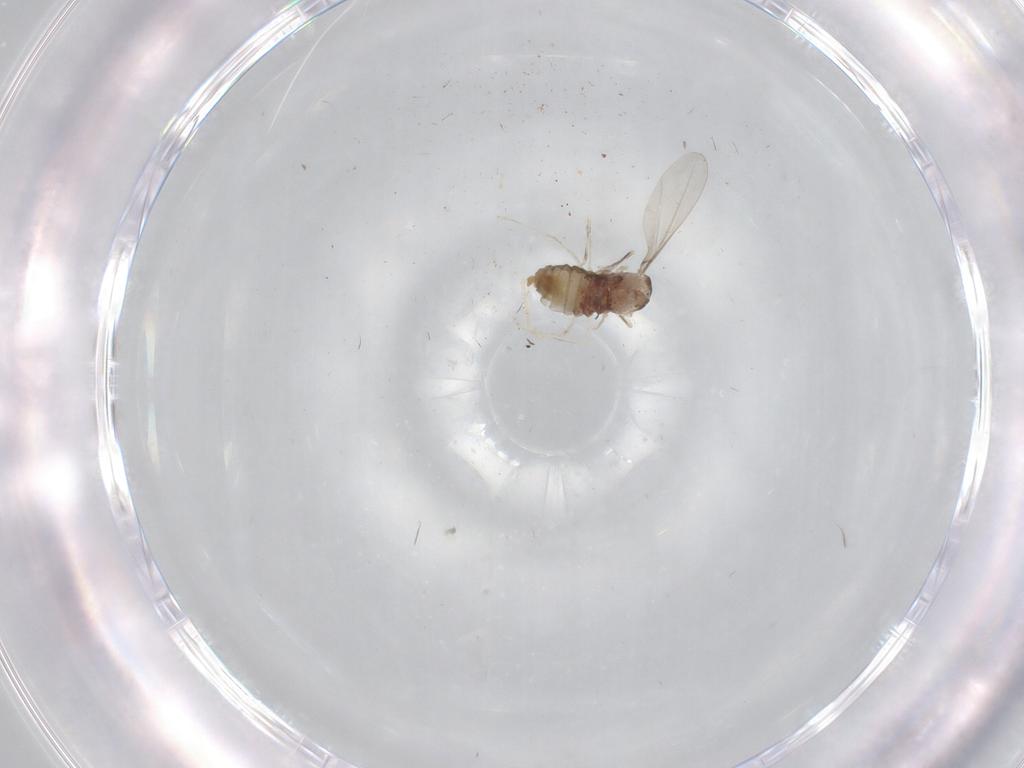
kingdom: Animalia
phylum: Arthropoda
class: Insecta
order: Diptera
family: Cecidomyiidae
